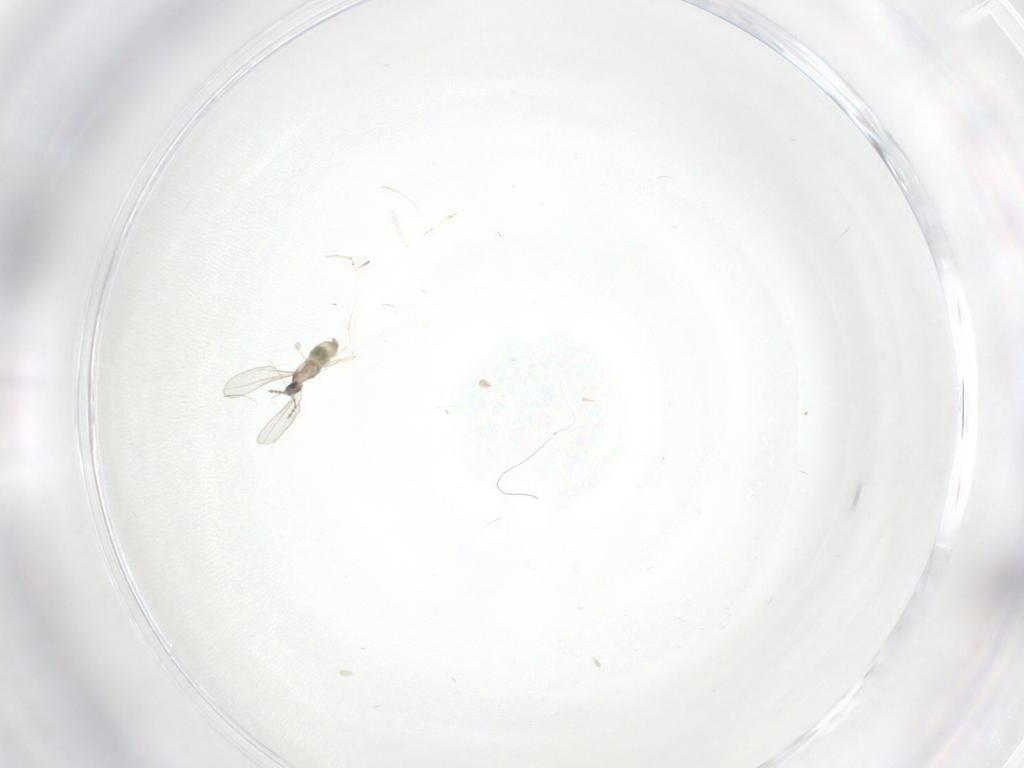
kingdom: Animalia
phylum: Arthropoda
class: Insecta
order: Diptera
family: Cecidomyiidae
